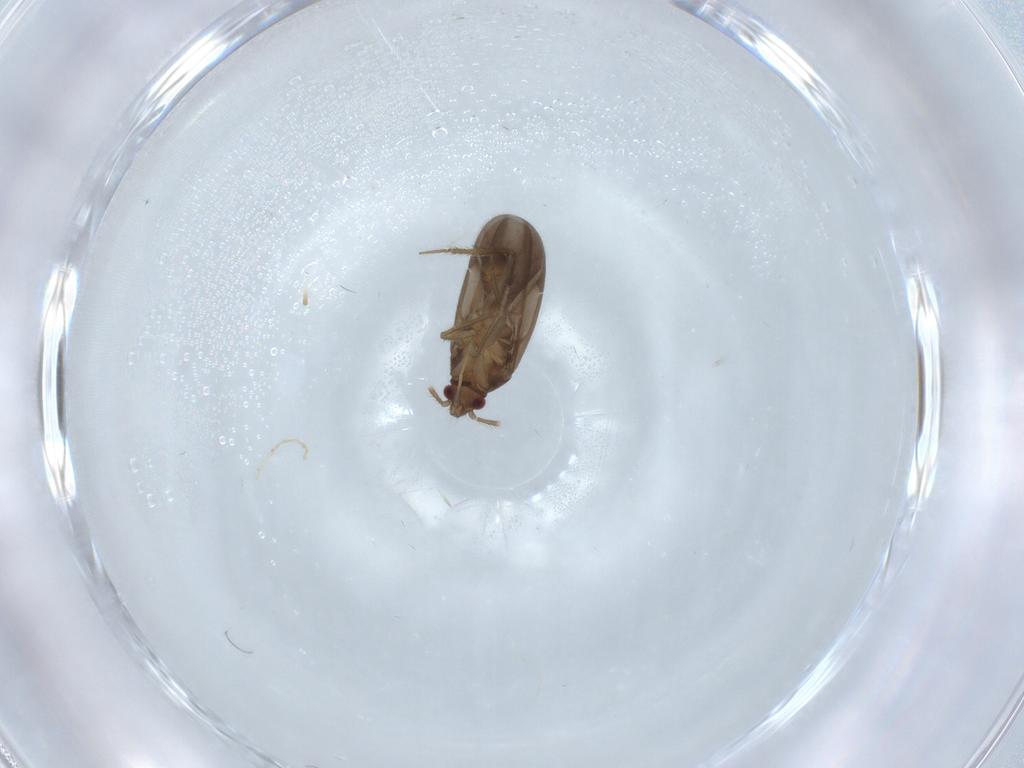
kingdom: Animalia
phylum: Arthropoda
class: Insecta
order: Hemiptera
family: Ceratocombidae
